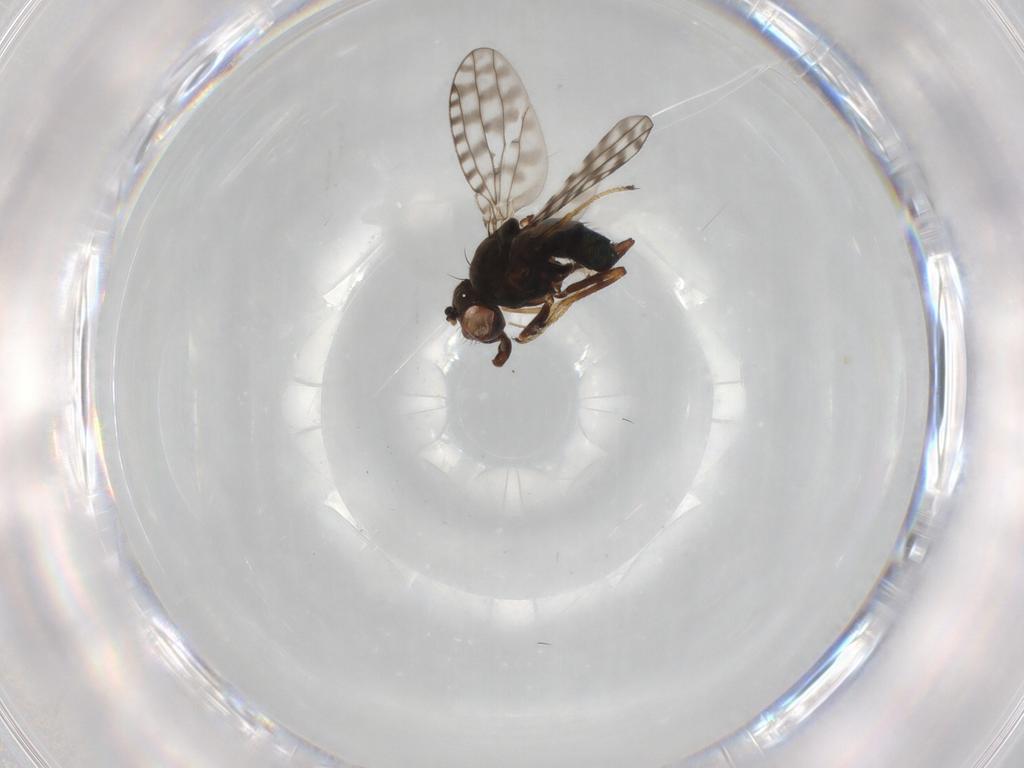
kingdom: Animalia
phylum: Arthropoda
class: Insecta
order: Diptera
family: Ephydridae
